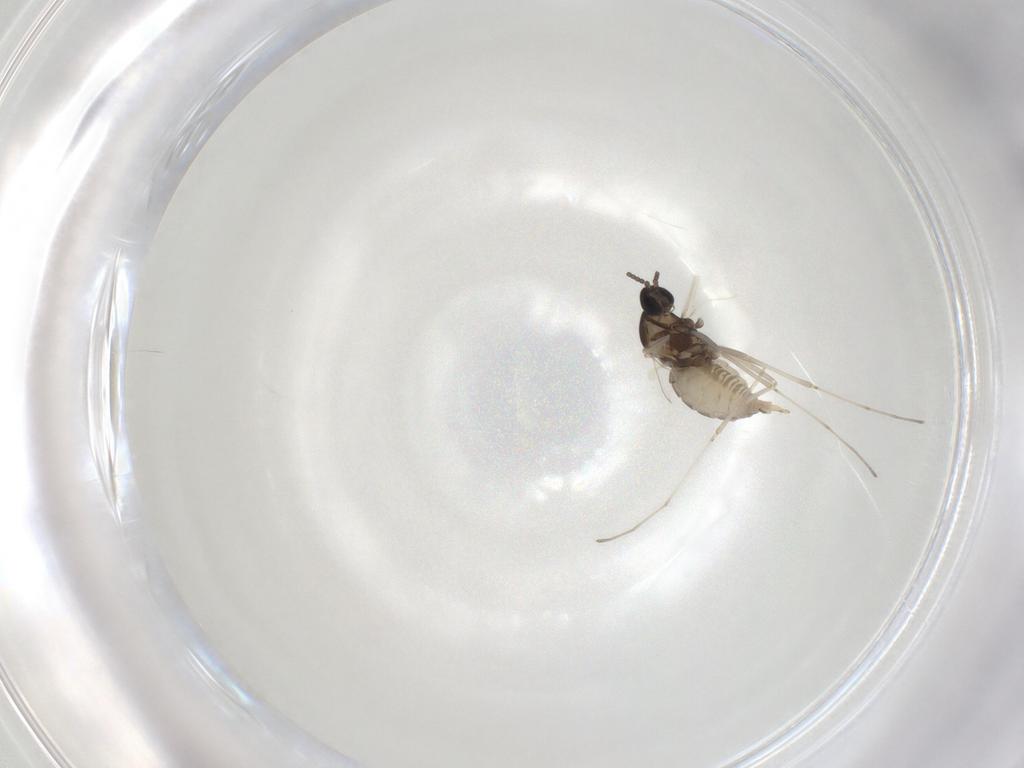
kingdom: Animalia
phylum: Arthropoda
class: Insecta
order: Diptera
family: Cecidomyiidae
